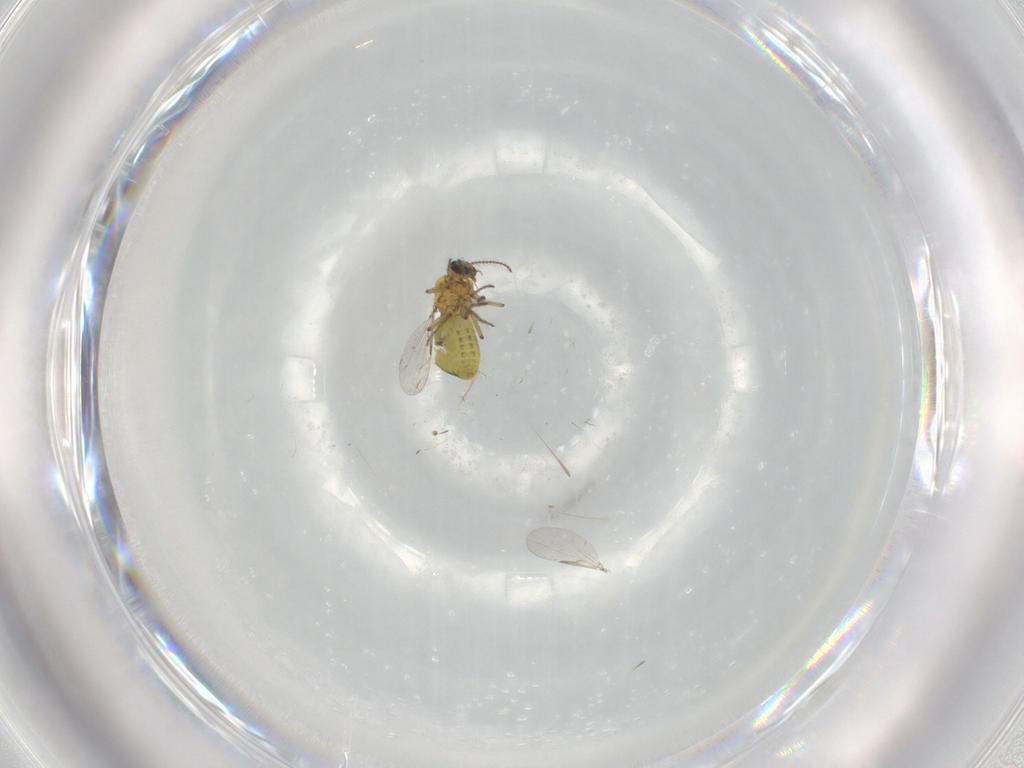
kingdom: Animalia
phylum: Arthropoda
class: Insecta
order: Diptera
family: Ceratopogonidae
